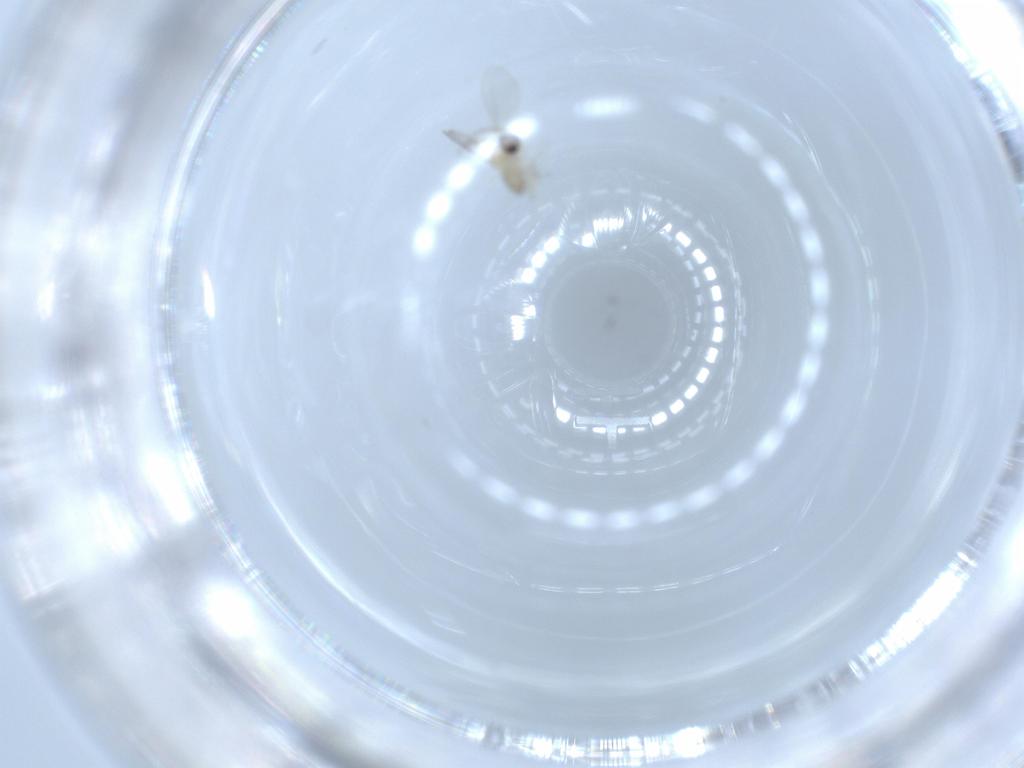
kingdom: Animalia
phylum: Arthropoda
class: Insecta
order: Diptera
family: Phoridae
